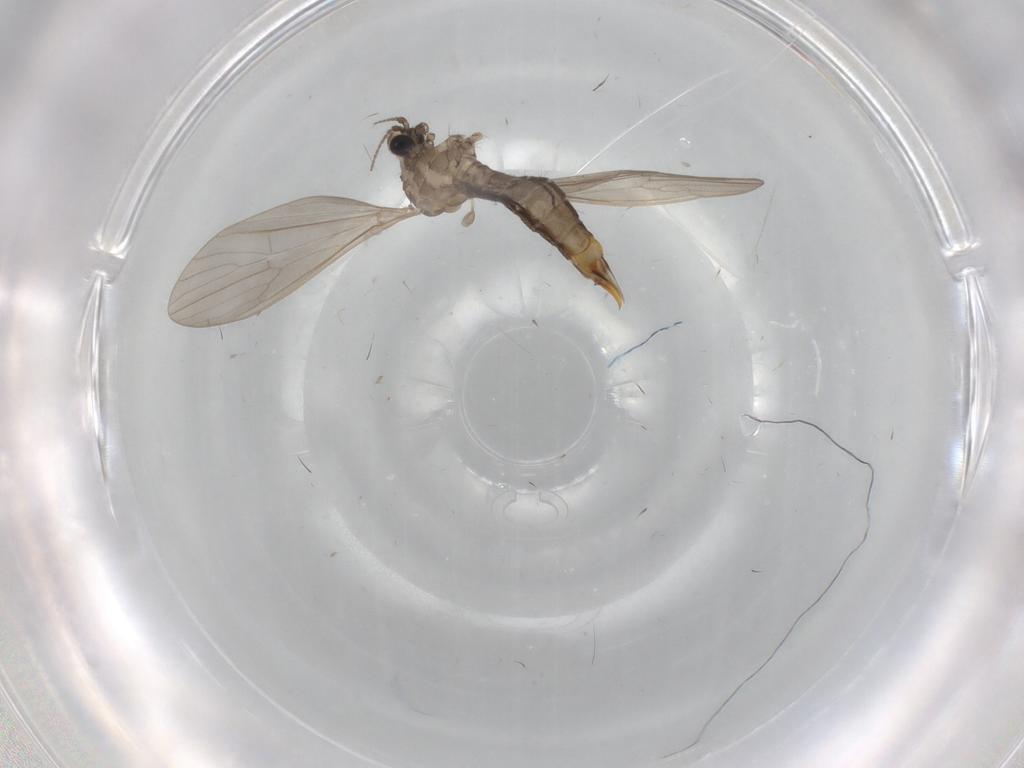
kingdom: Animalia
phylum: Arthropoda
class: Insecta
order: Diptera
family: Limoniidae
